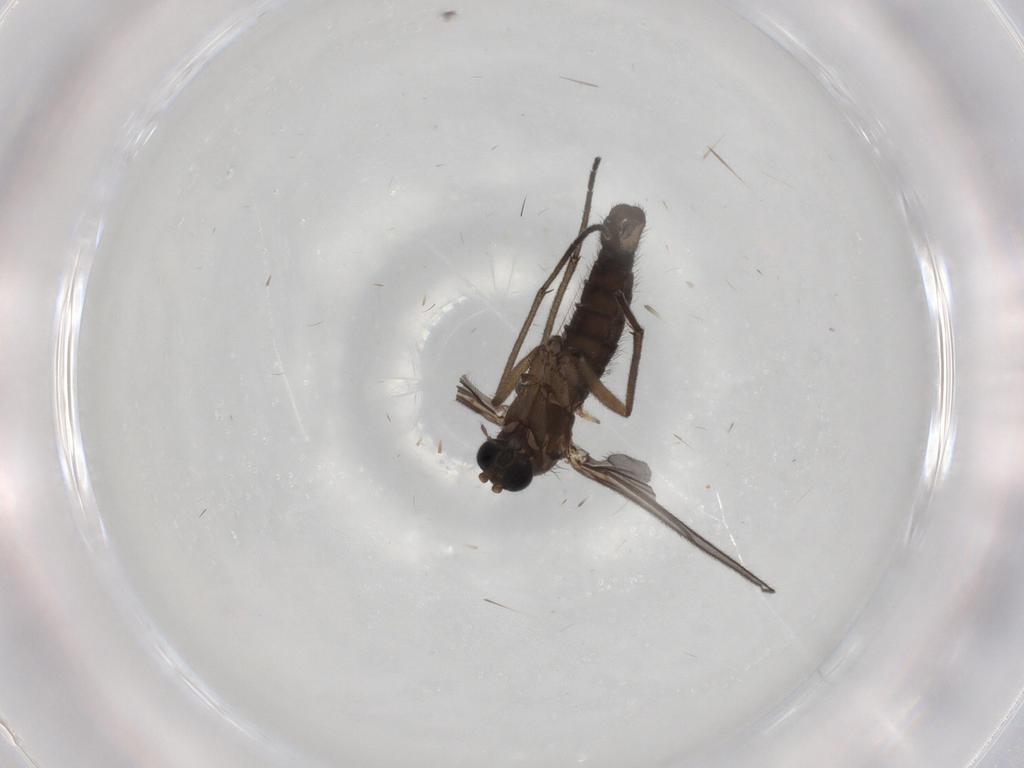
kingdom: Animalia
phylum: Arthropoda
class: Insecta
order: Diptera
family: Sciaridae
